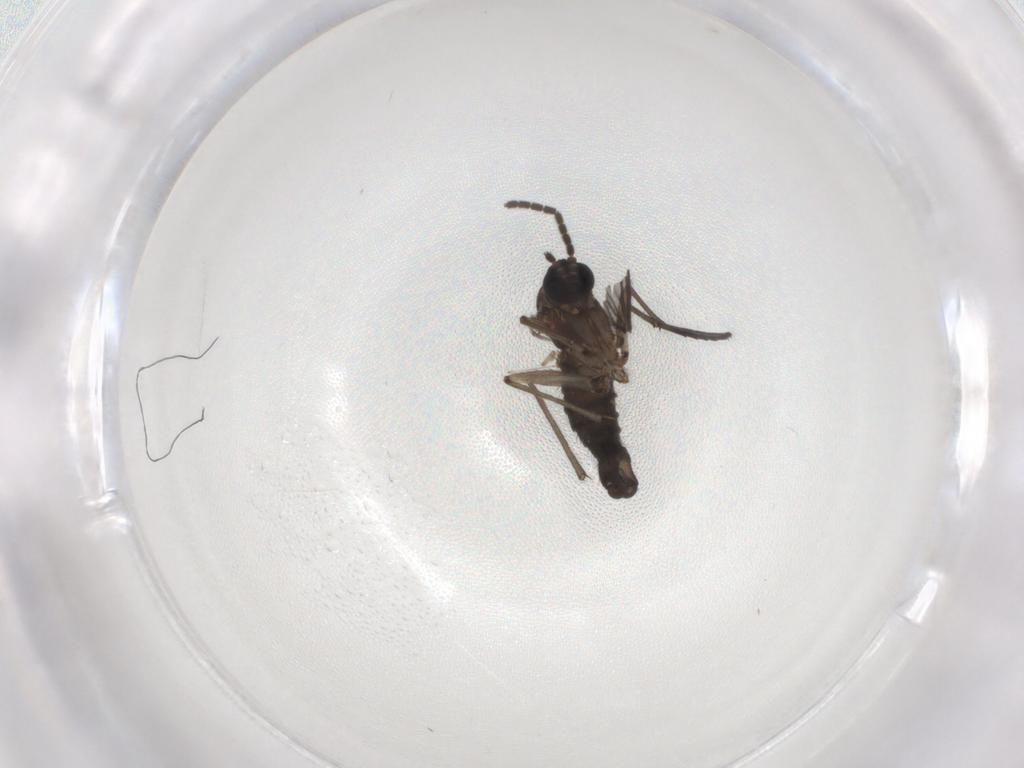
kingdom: Animalia
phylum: Arthropoda
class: Insecta
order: Diptera
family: Sciaridae
